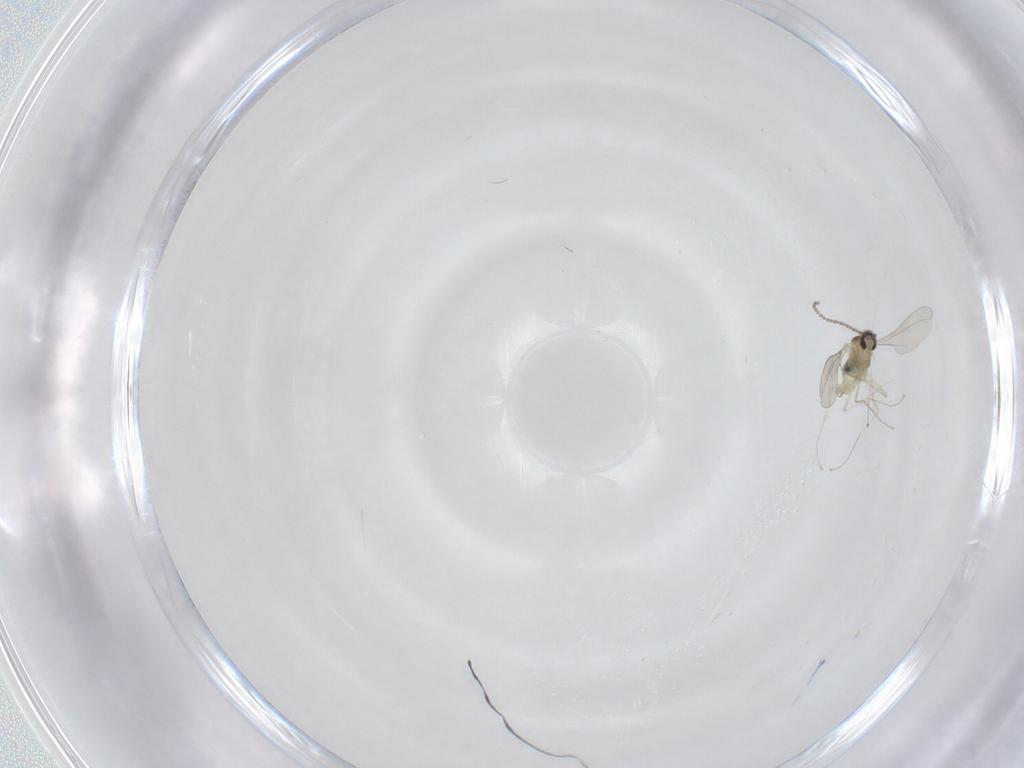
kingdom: Animalia
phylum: Arthropoda
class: Insecta
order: Diptera
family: Cecidomyiidae
